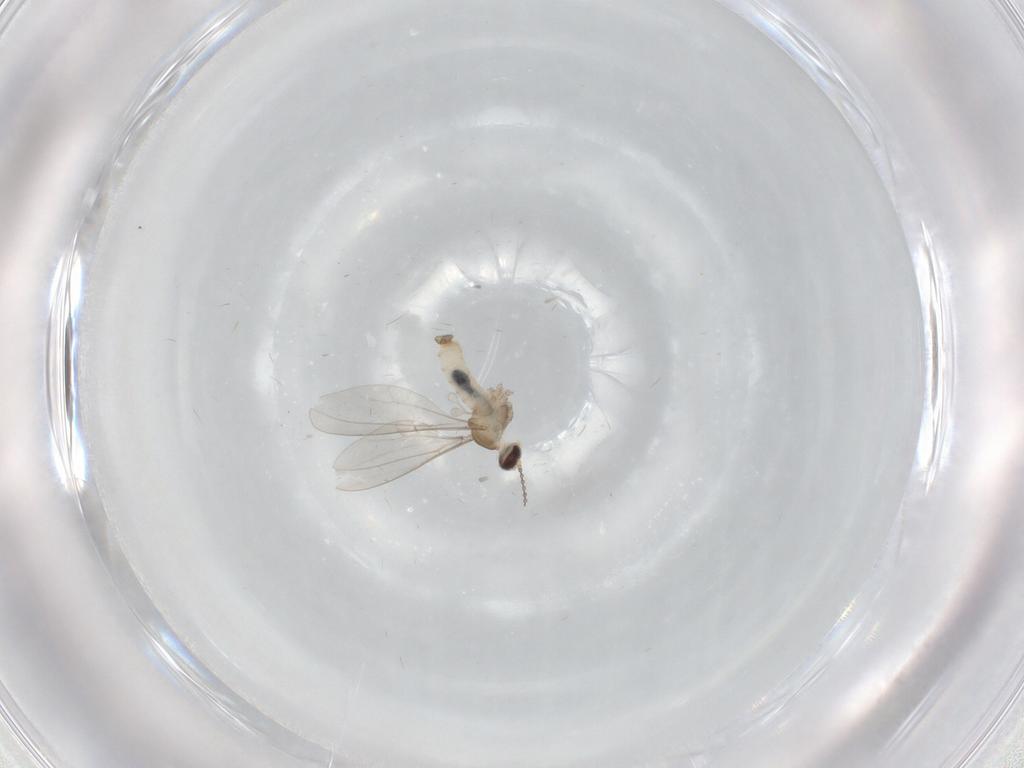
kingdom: Animalia
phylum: Arthropoda
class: Insecta
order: Diptera
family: Cecidomyiidae
